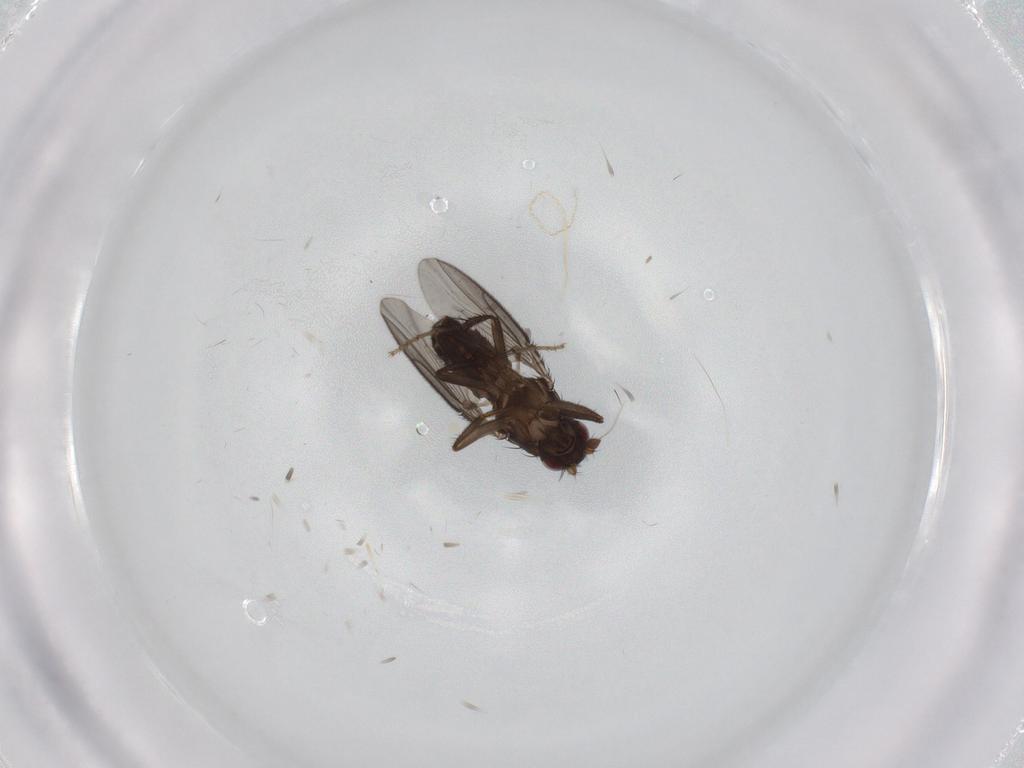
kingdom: Animalia
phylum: Arthropoda
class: Insecta
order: Diptera
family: Sphaeroceridae
